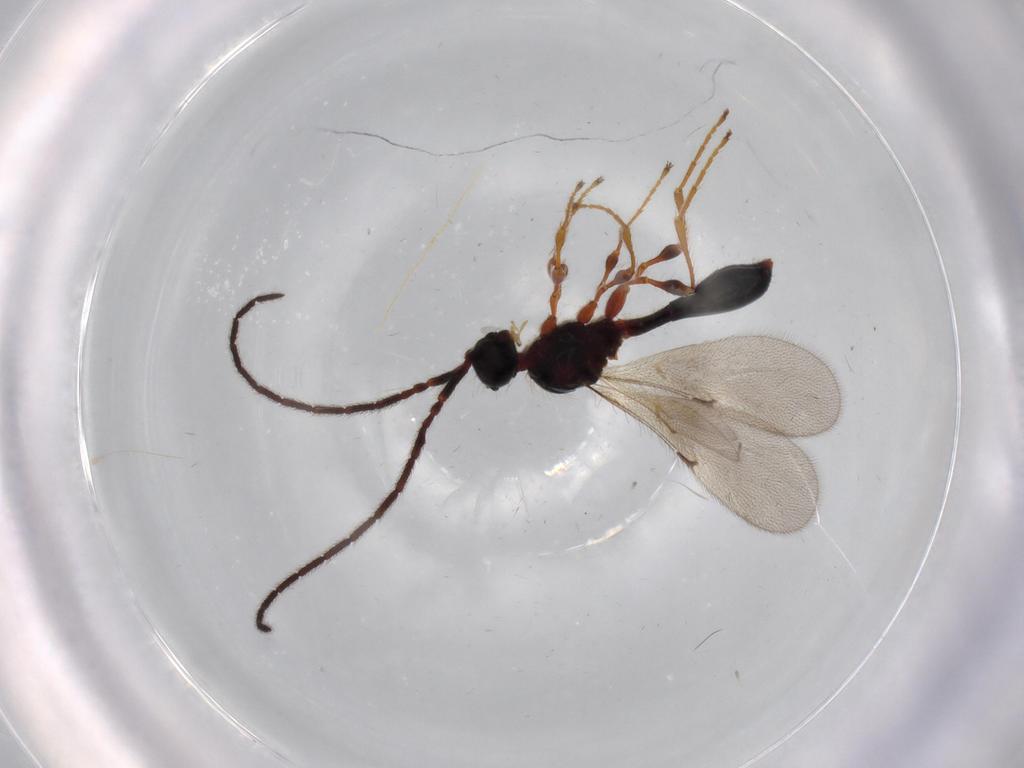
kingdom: Animalia
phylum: Arthropoda
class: Insecta
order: Hymenoptera
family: Diapriidae
